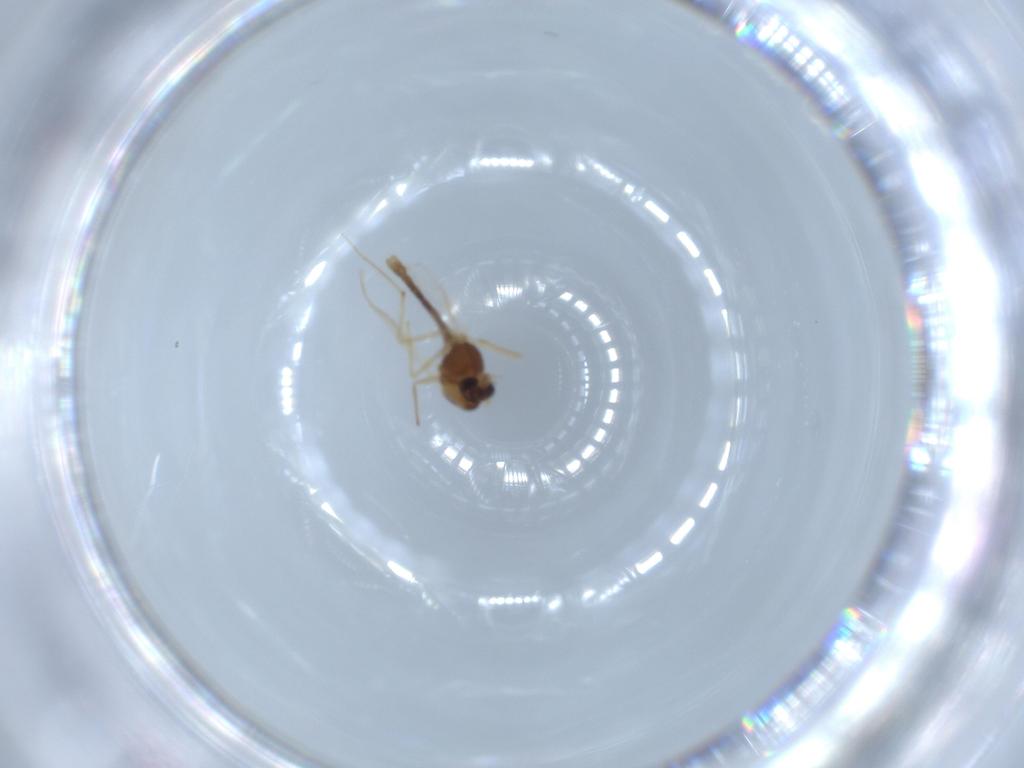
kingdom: Animalia
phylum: Arthropoda
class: Insecta
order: Diptera
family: Chironomidae
